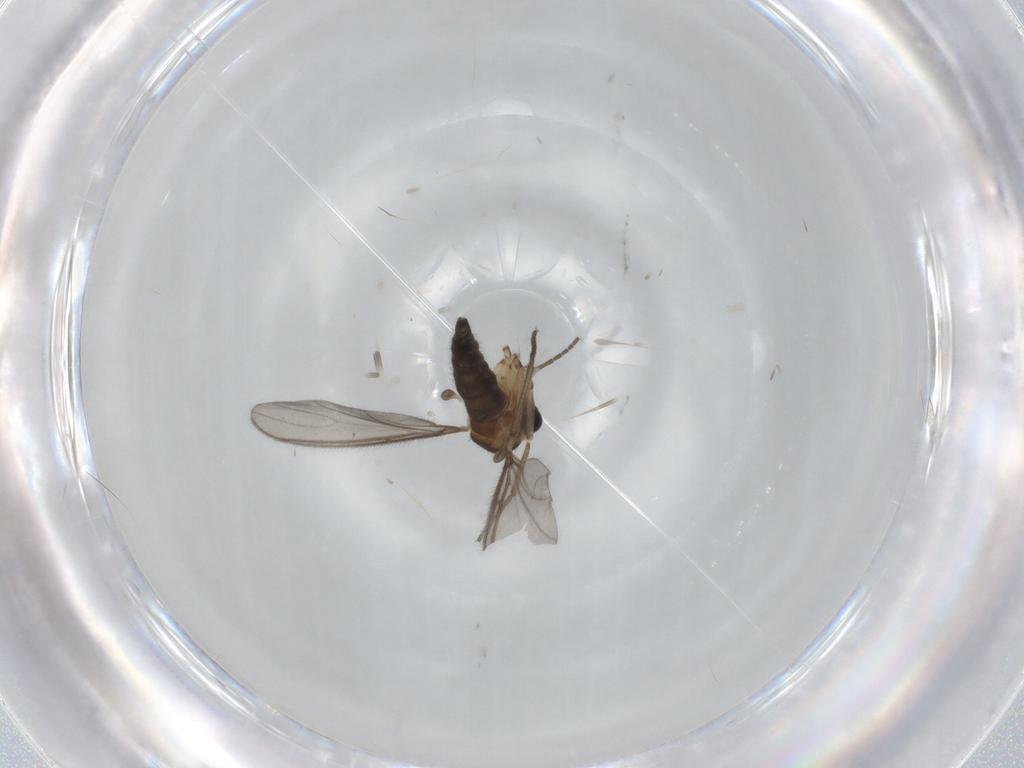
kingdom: Animalia
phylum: Arthropoda
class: Insecta
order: Diptera
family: Sciaridae
